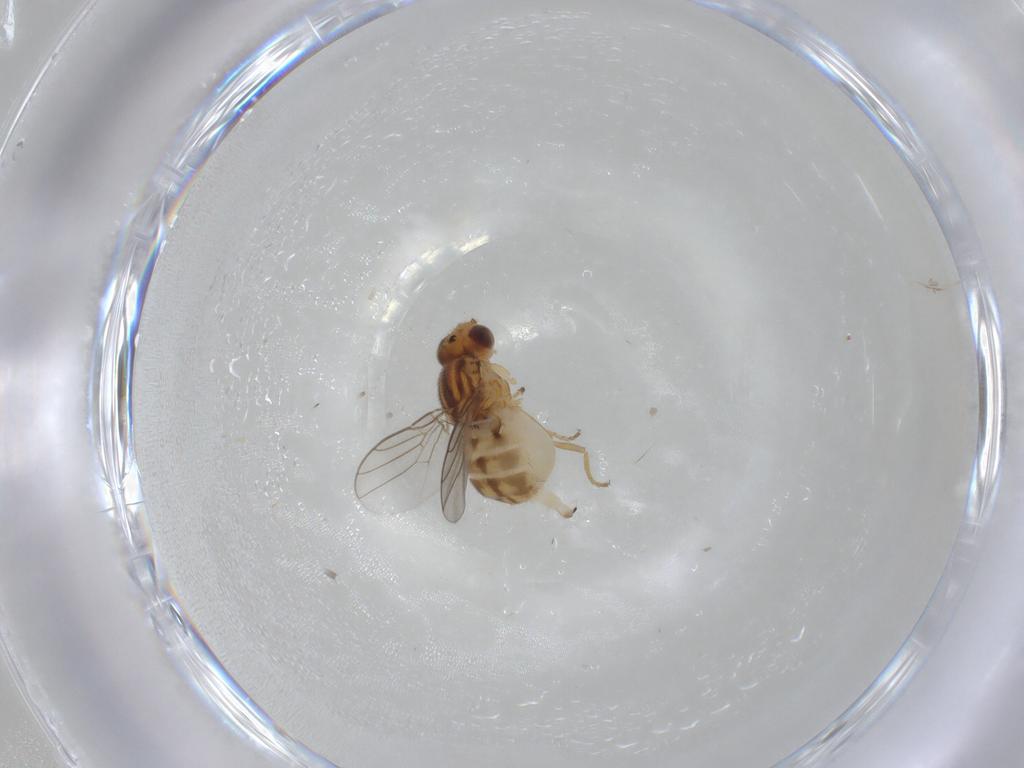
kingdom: Animalia
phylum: Arthropoda
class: Insecta
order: Diptera
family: Chloropidae
